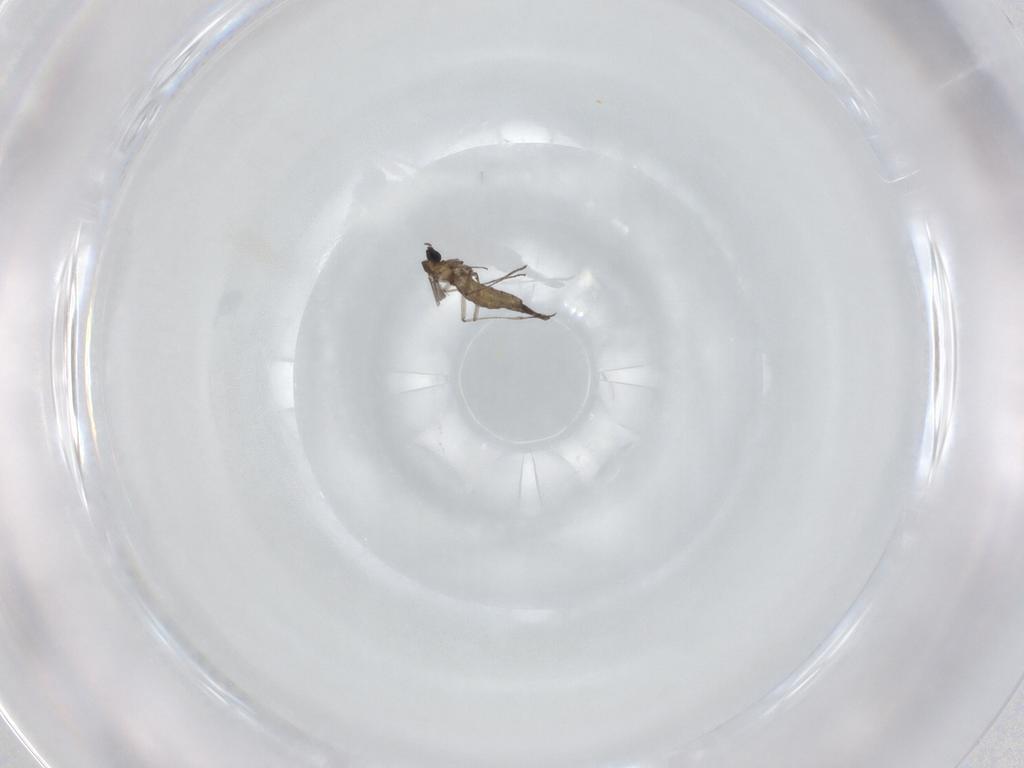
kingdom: Animalia
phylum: Arthropoda
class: Insecta
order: Diptera
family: Sciaridae
